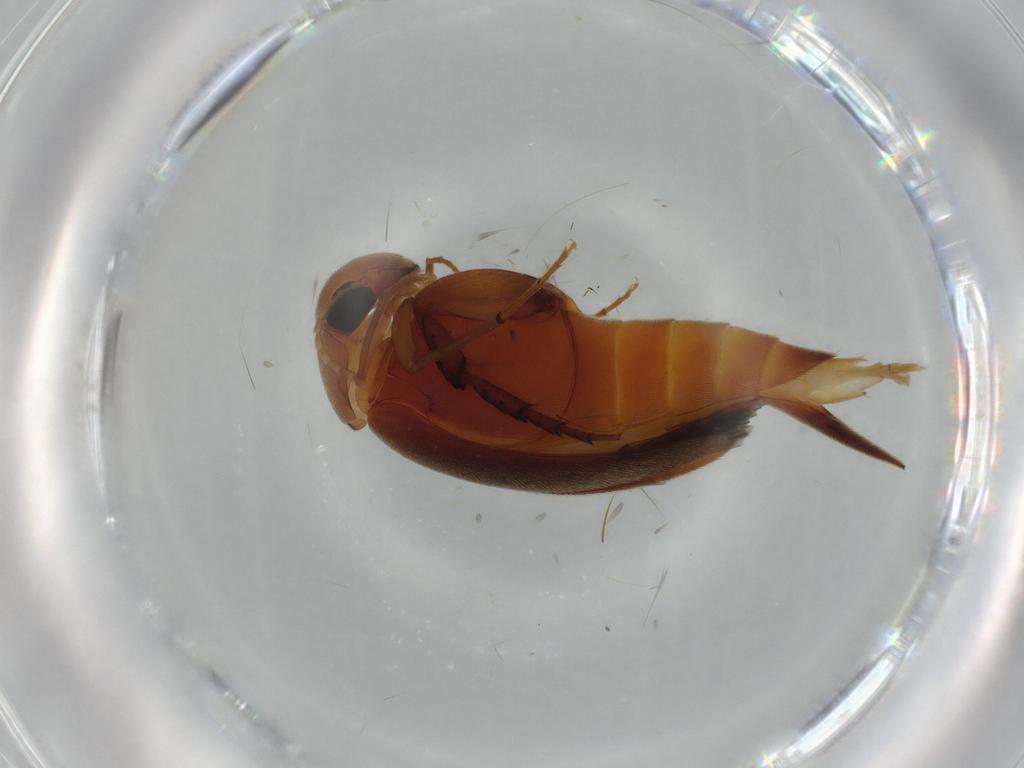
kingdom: Animalia
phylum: Arthropoda
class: Insecta
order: Coleoptera
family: Mordellidae
